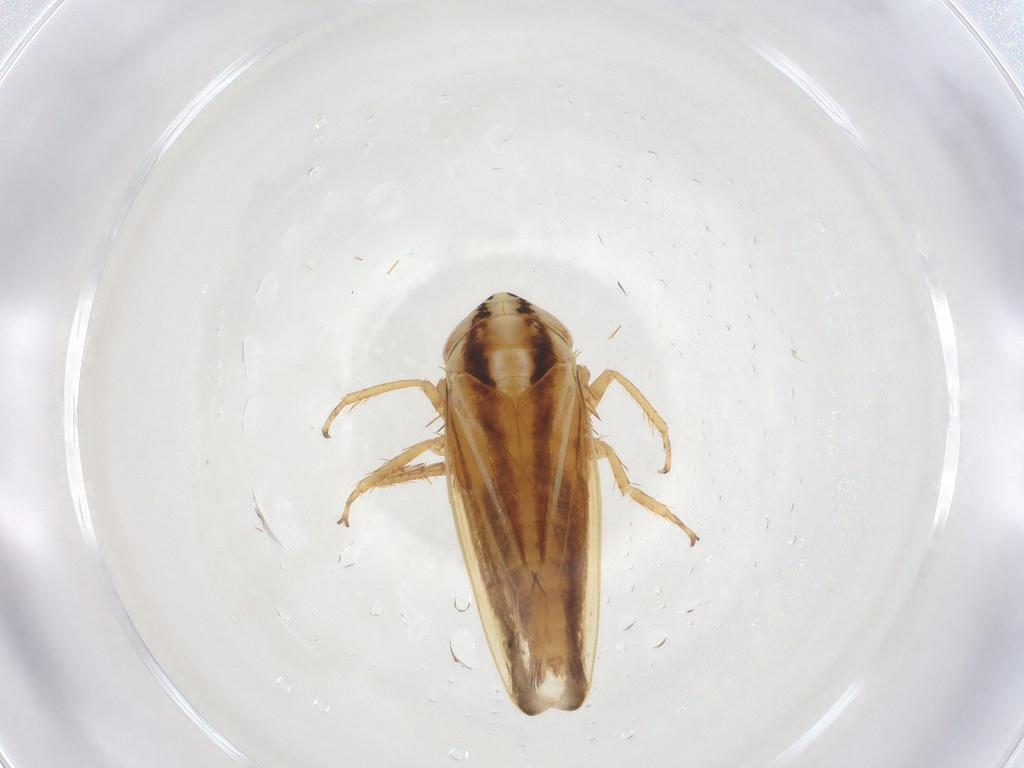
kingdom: Animalia
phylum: Arthropoda
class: Insecta
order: Hemiptera
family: Cicadellidae
